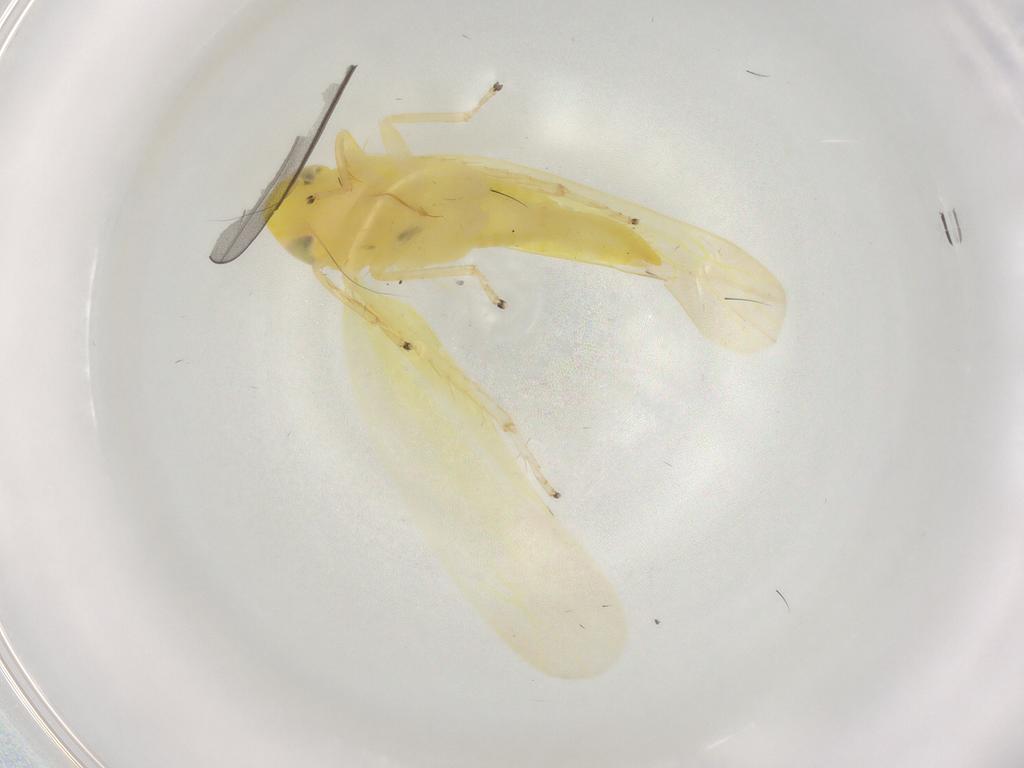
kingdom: Animalia
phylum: Arthropoda
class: Insecta
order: Hemiptera
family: Cicadellidae
